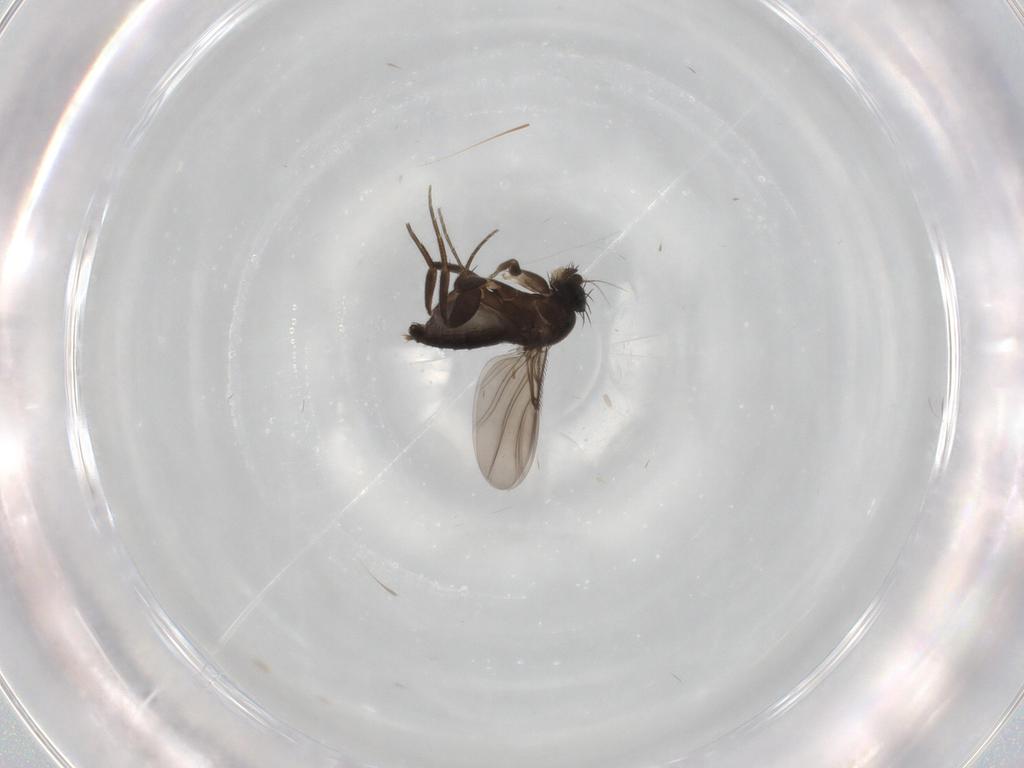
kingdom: Animalia
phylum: Arthropoda
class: Insecta
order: Diptera
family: Phoridae
